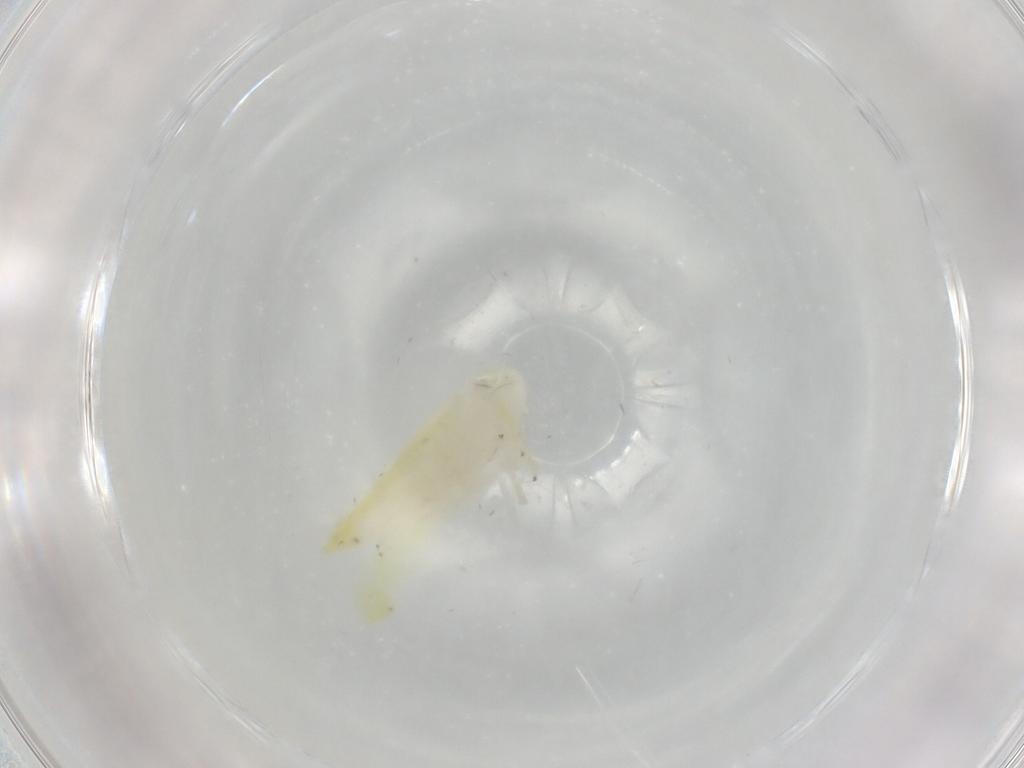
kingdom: Animalia
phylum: Arthropoda
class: Insecta
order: Hemiptera
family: Cicadellidae
